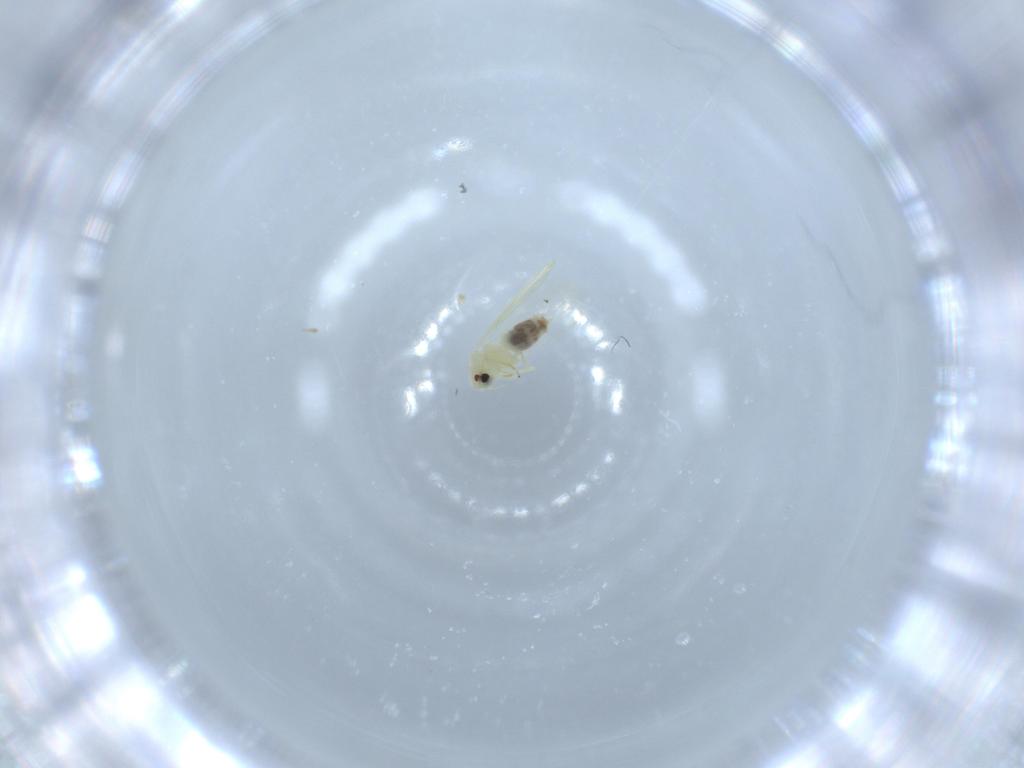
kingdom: Animalia
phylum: Arthropoda
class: Insecta
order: Hemiptera
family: Aleyrodidae
